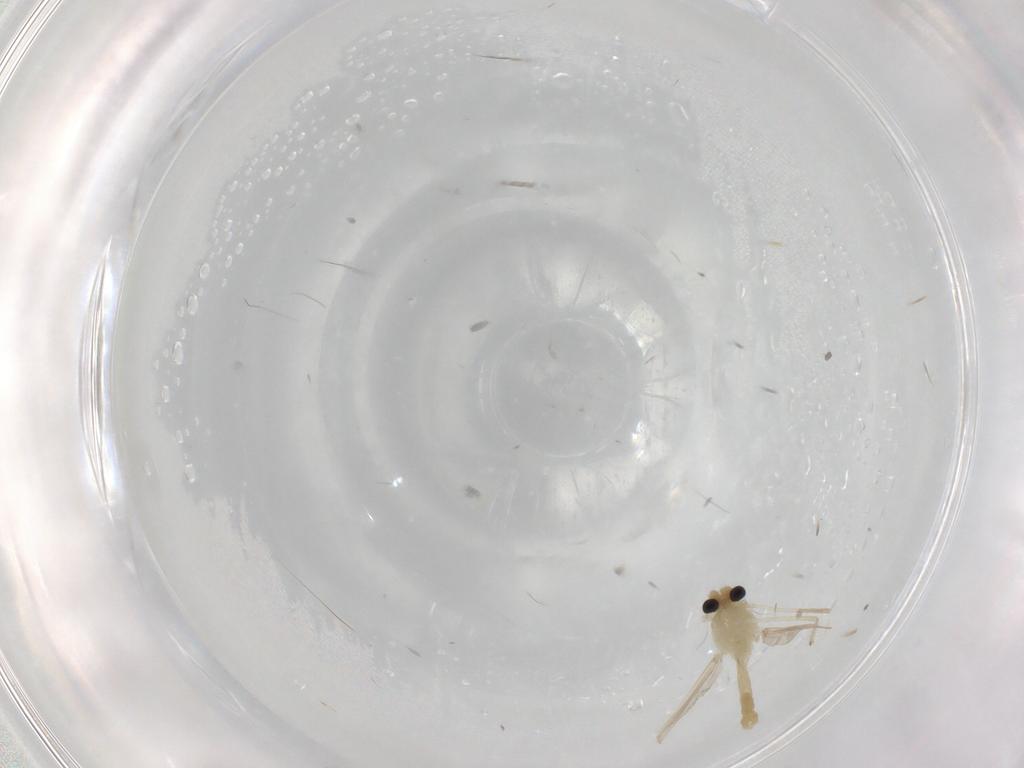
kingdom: Animalia
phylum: Arthropoda
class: Insecta
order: Diptera
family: Chironomidae
